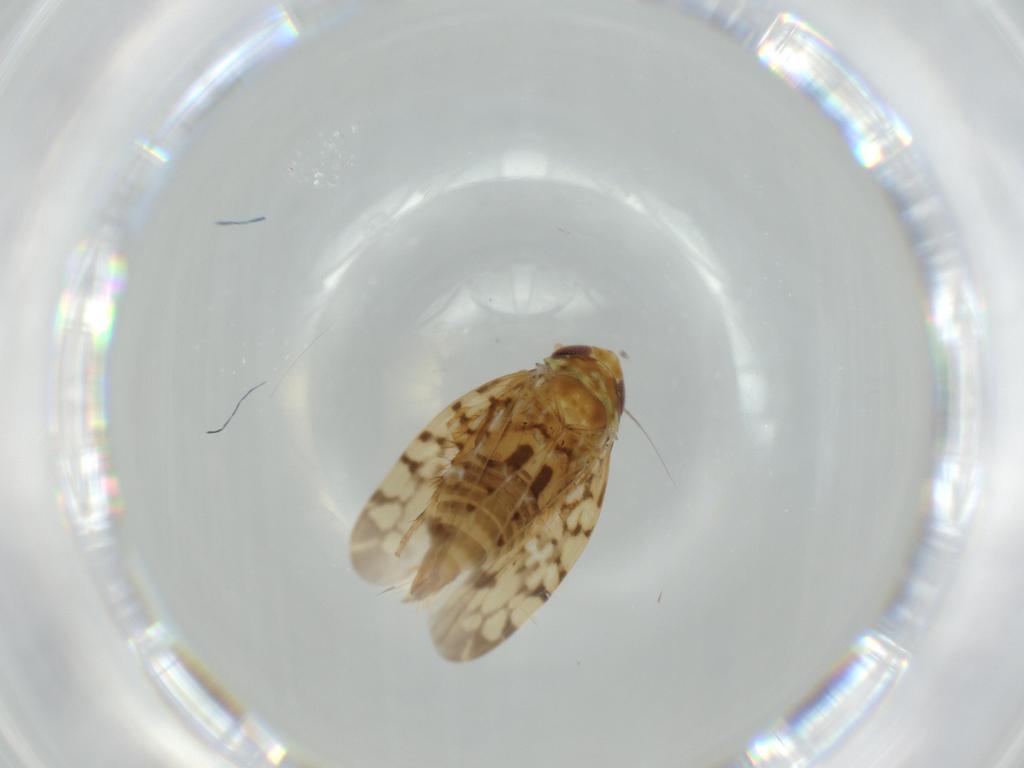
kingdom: Animalia
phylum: Arthropoda
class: Insecta
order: Hemiptera
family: Cicadellidae
